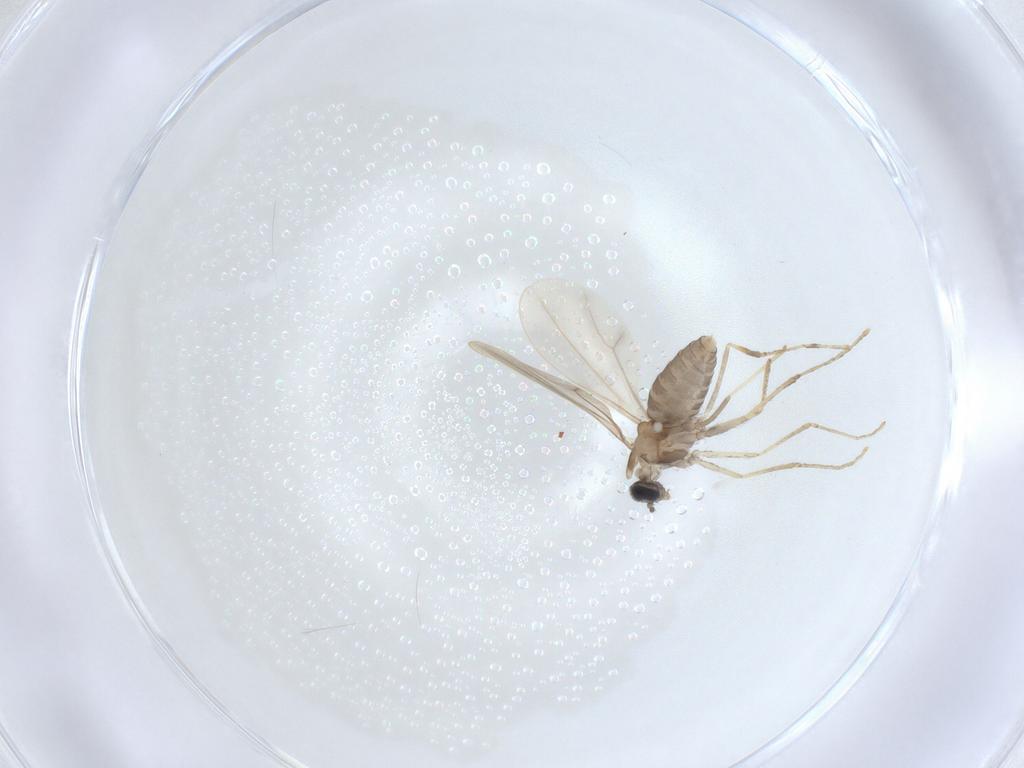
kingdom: Animalia
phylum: Arthropoda
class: Insecta
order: Diptera
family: Cecidomyiidae
